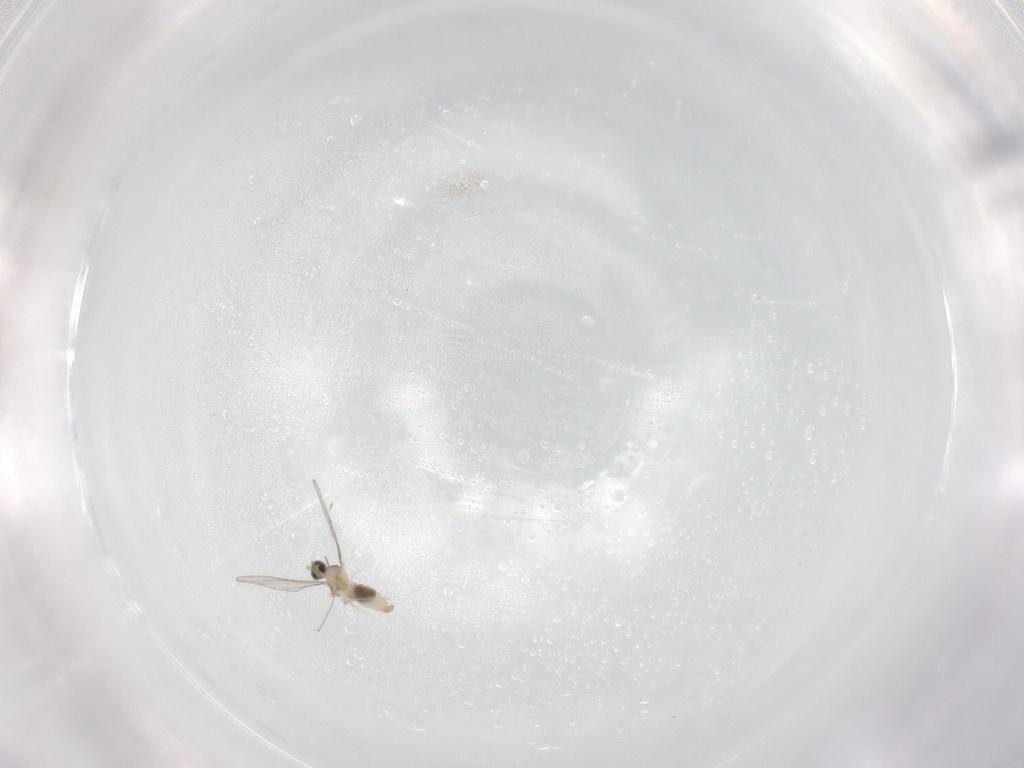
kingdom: Animalia
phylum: Arthropoda
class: Insecta
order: Diptera
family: Cecidomyiidae
